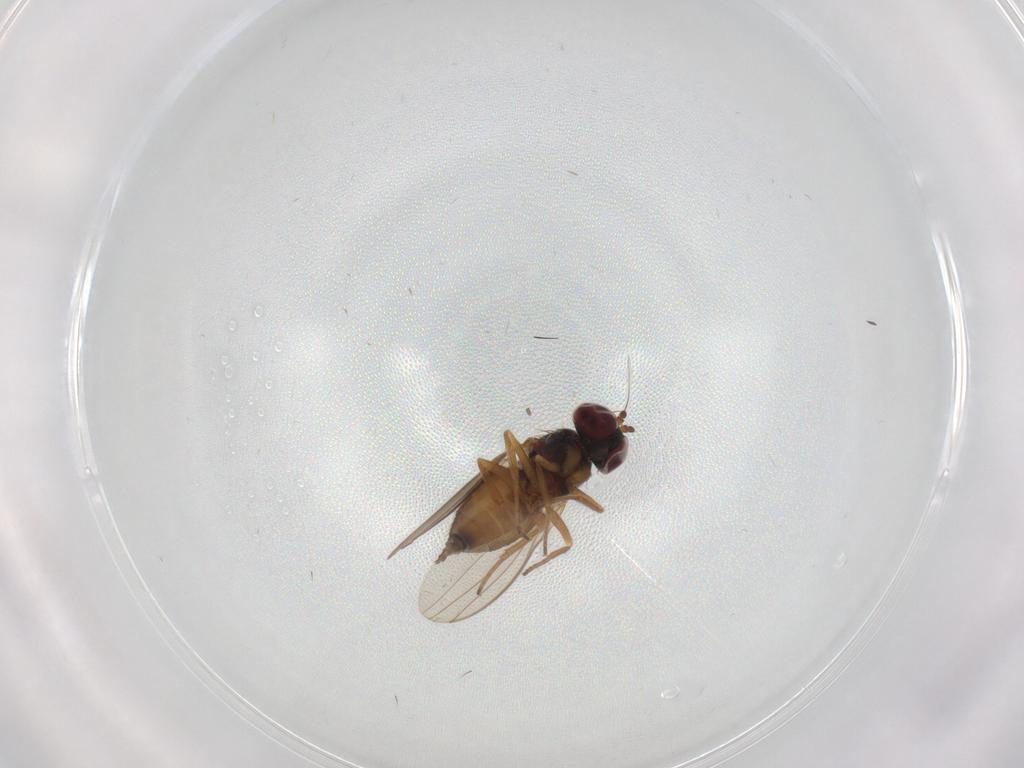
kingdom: Animalia
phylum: Arthropoda
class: Insecta
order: Diptera
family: Dolichopodidae
